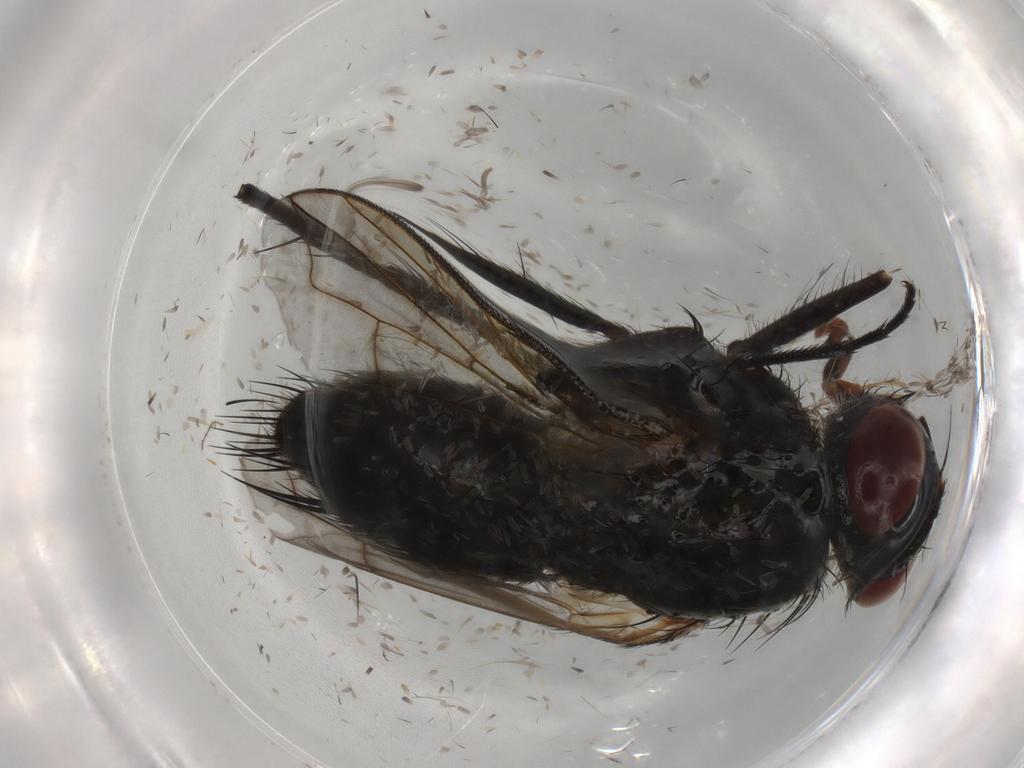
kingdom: Animalia
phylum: Arthropoda
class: Insecta
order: Diptera
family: Tachinidae
